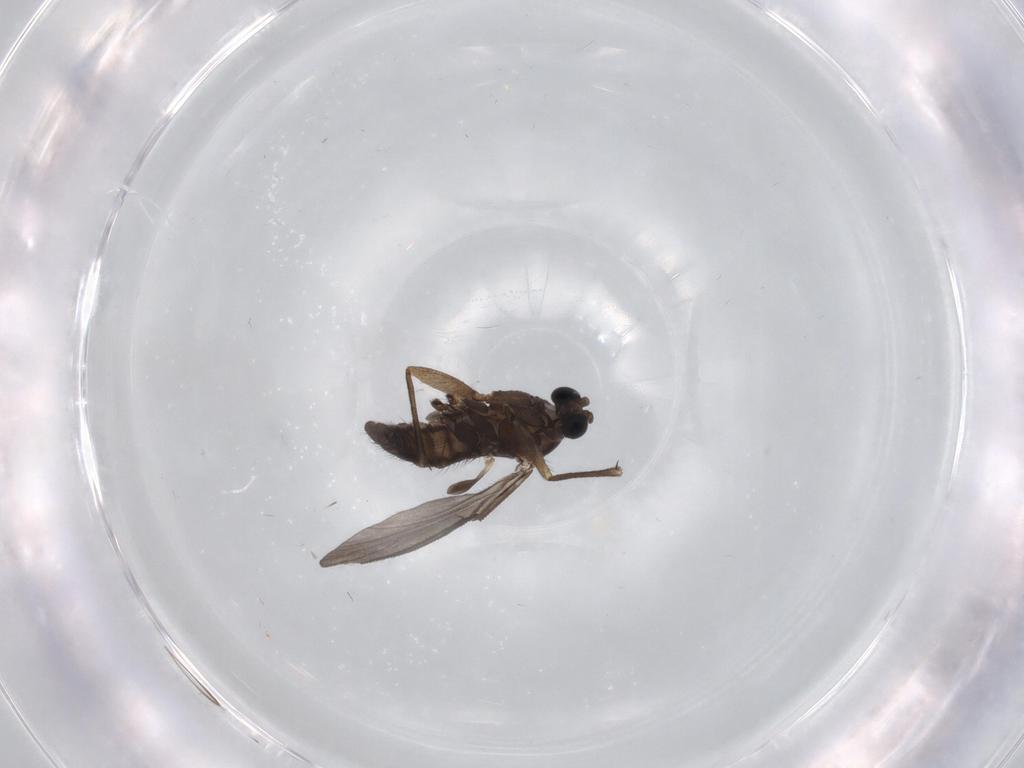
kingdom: Animalia
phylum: Arthropoda
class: Insecta
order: Diptera
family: Sciaridae
